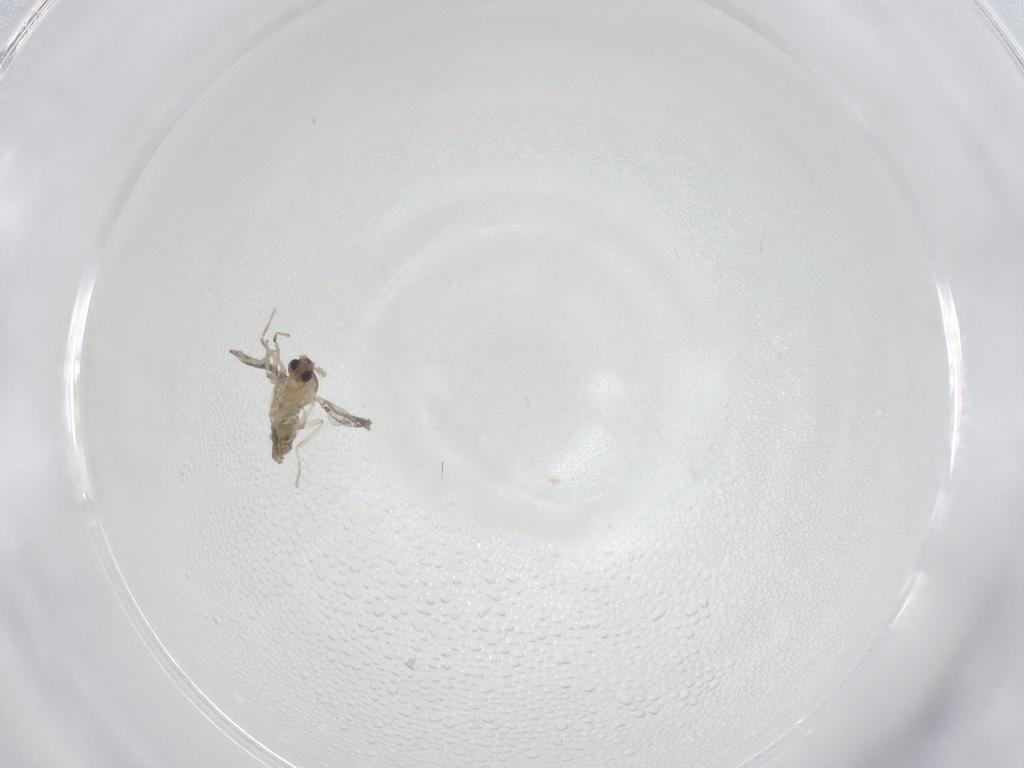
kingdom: Animalia
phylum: Arthropoda
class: Insecta
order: Diptera
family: Cecidomyiidae
